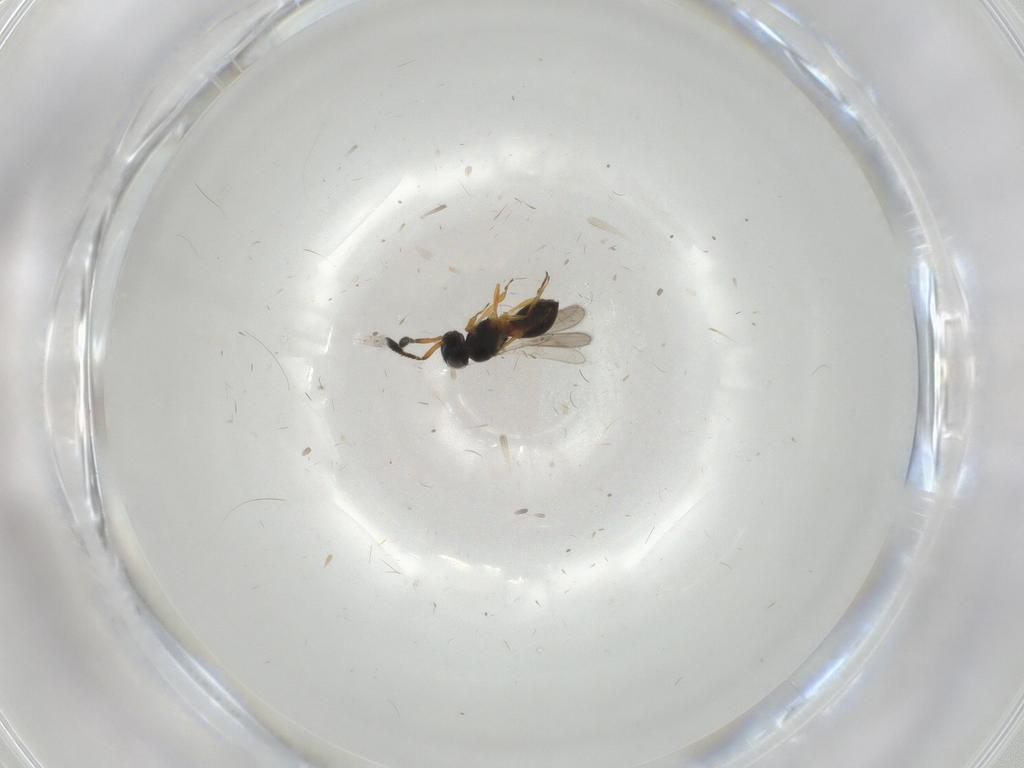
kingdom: Animalia
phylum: Arthropoda
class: Insecta
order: Hymenoptera
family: Scelionidae
